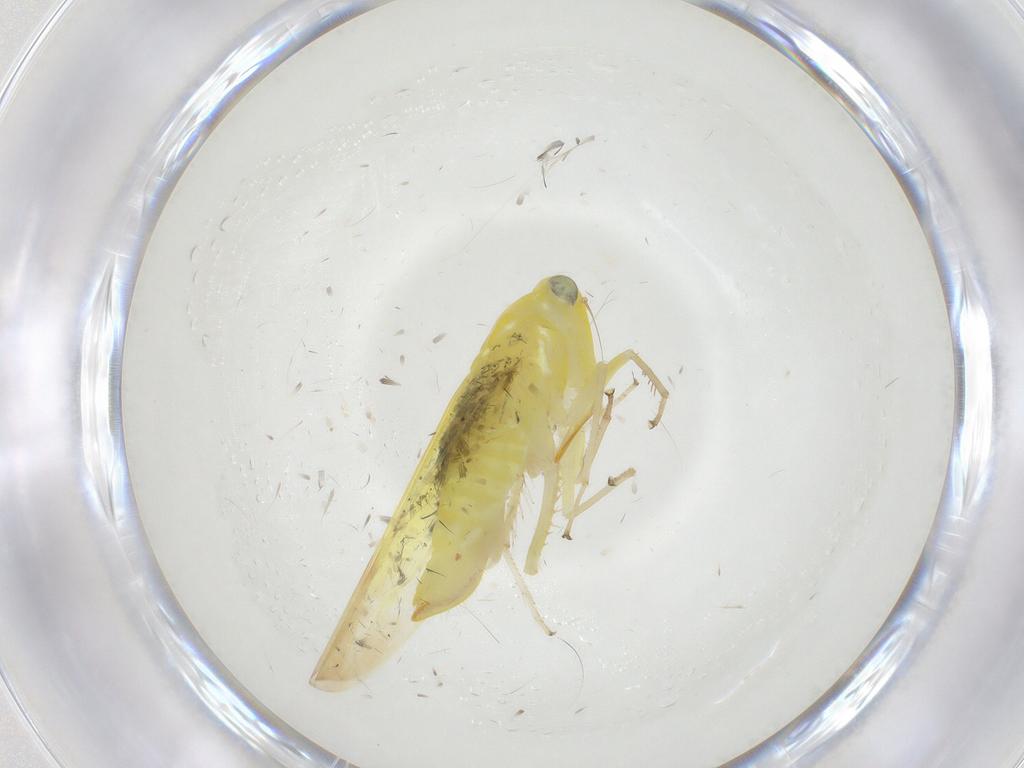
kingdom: Animalia
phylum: Arthropoda
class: Insecta
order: Hemiptera
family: Cicadellidae
